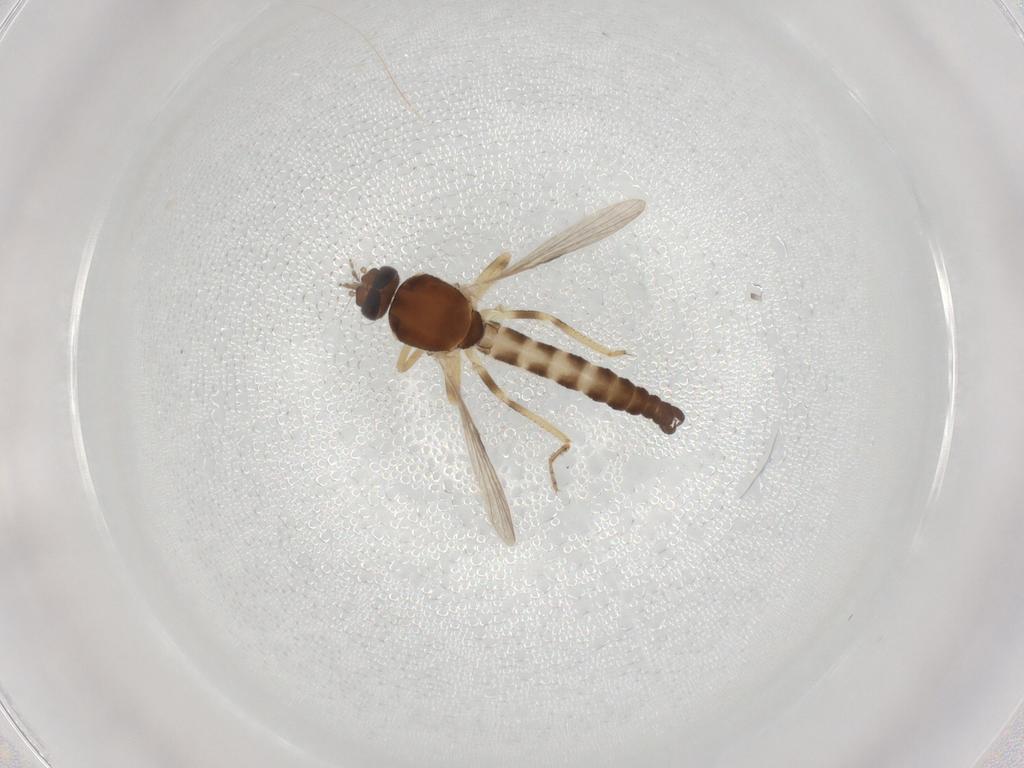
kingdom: Animalia
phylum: Arthropoda
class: Insecta
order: Diptera
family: Ceratopogonidae
